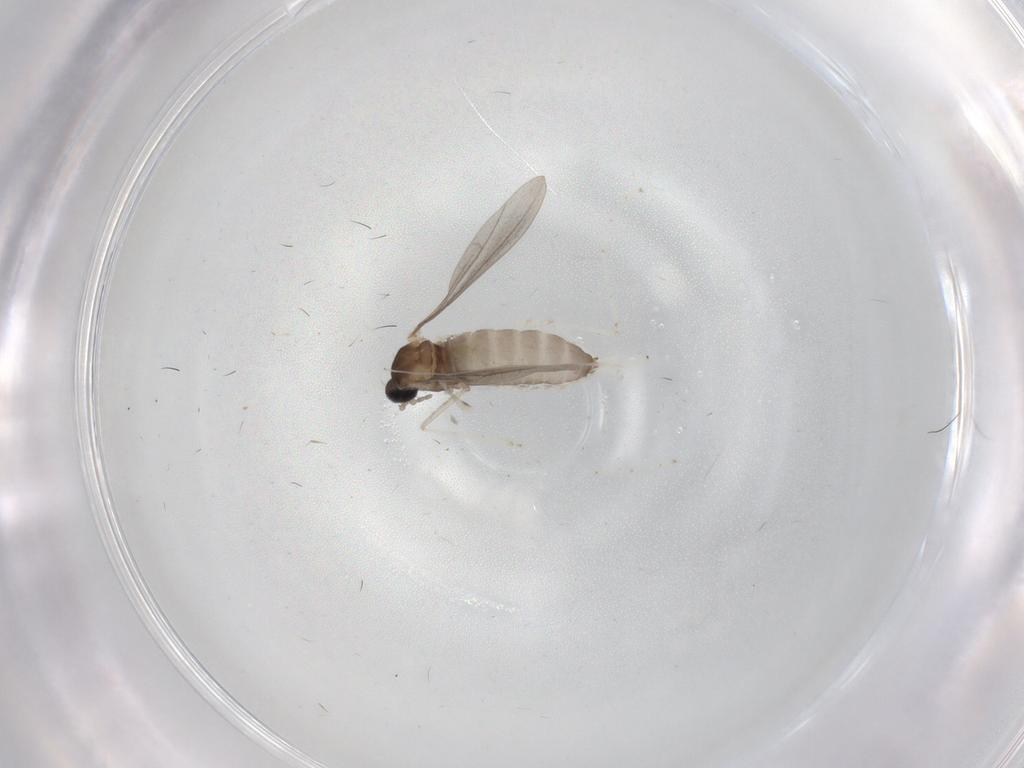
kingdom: Animalia
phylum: Arthropoda
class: Insecta
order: Diptera
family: Cecidomyiidae
